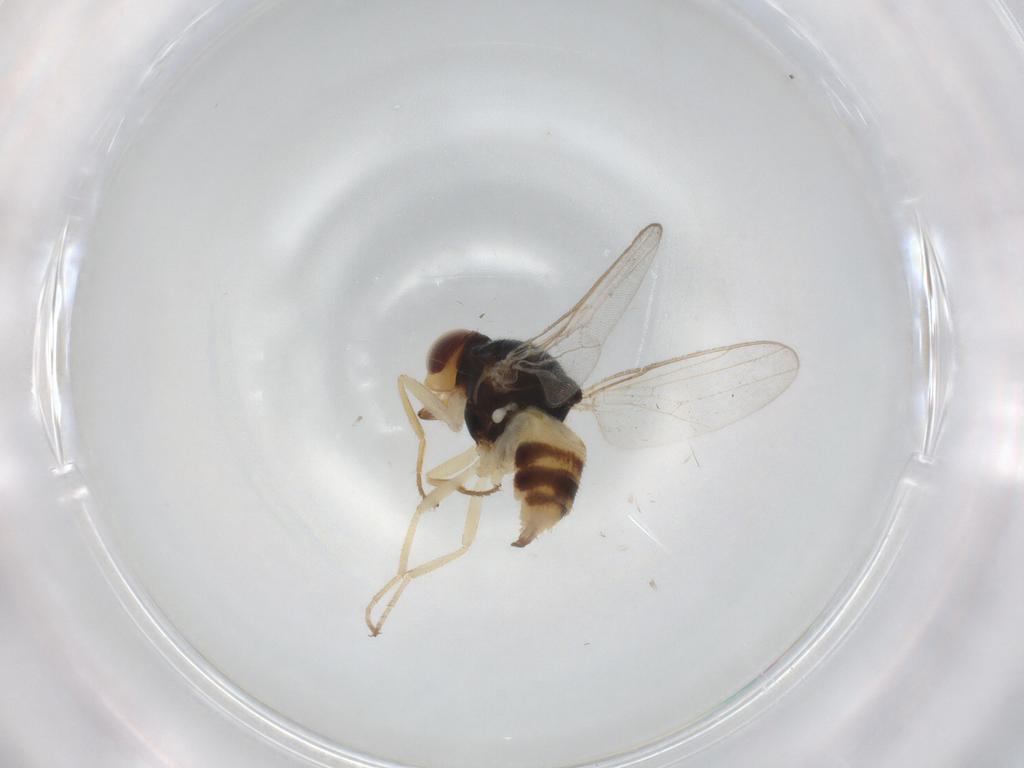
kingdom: Animalia
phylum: Arthropoda
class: Insecta
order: Diptera
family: Chloropidae
